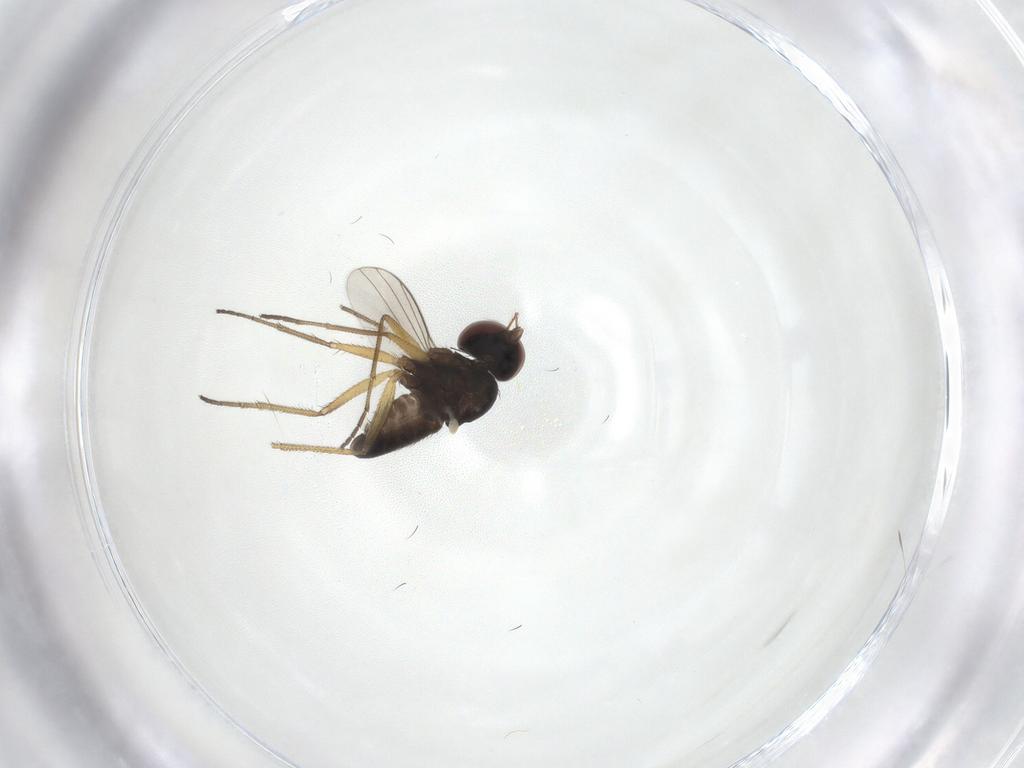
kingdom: Animalia
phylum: Arthropoda
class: Insecta
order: Diptera
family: Dolichopodidae
